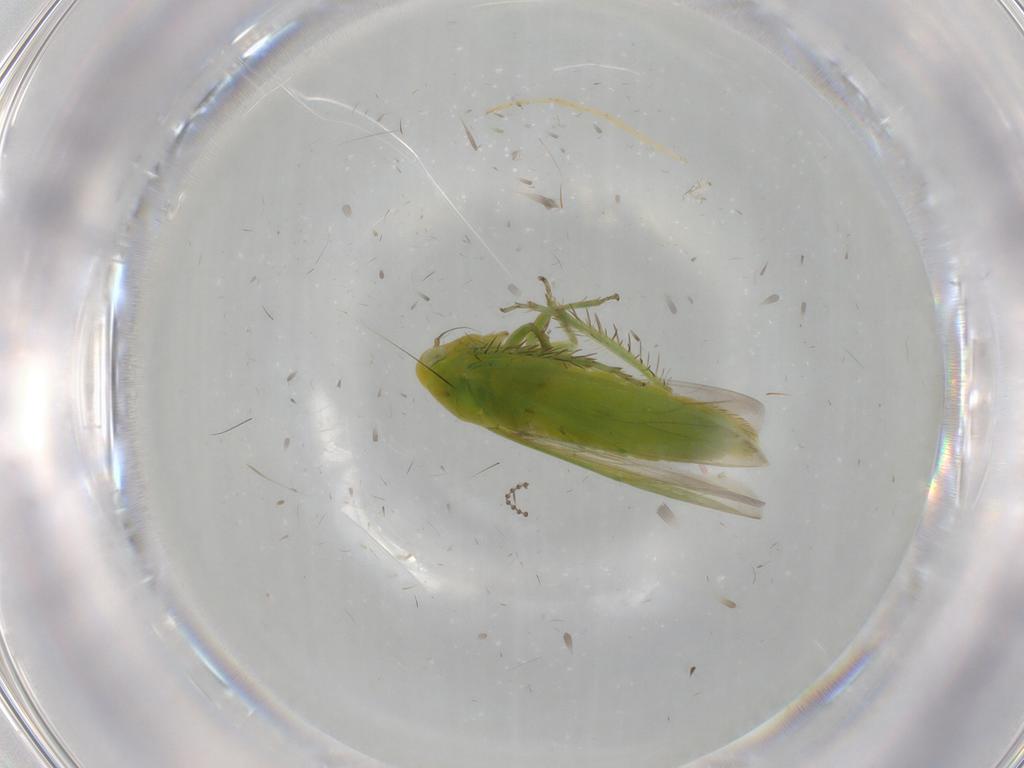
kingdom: Animalia
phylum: Arthropoda
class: Insecta
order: Hemiptera
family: Cicadellidae
